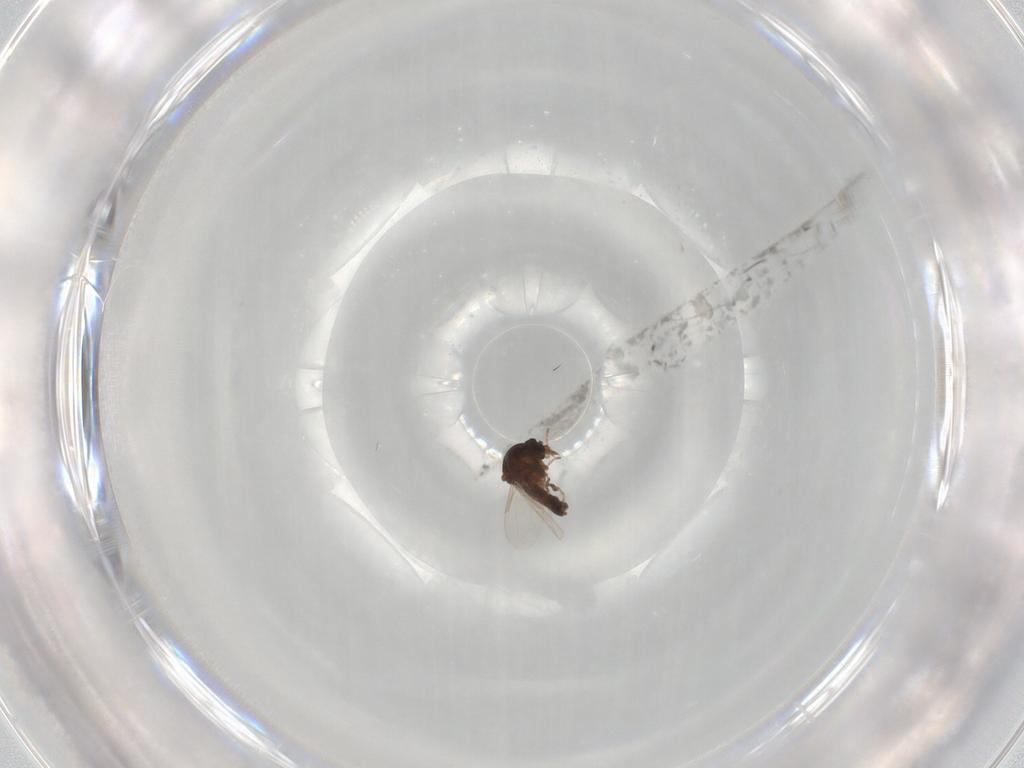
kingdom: Animalia
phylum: Arthropoda
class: Insecta
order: Diptera
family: Ceratopogonidae
